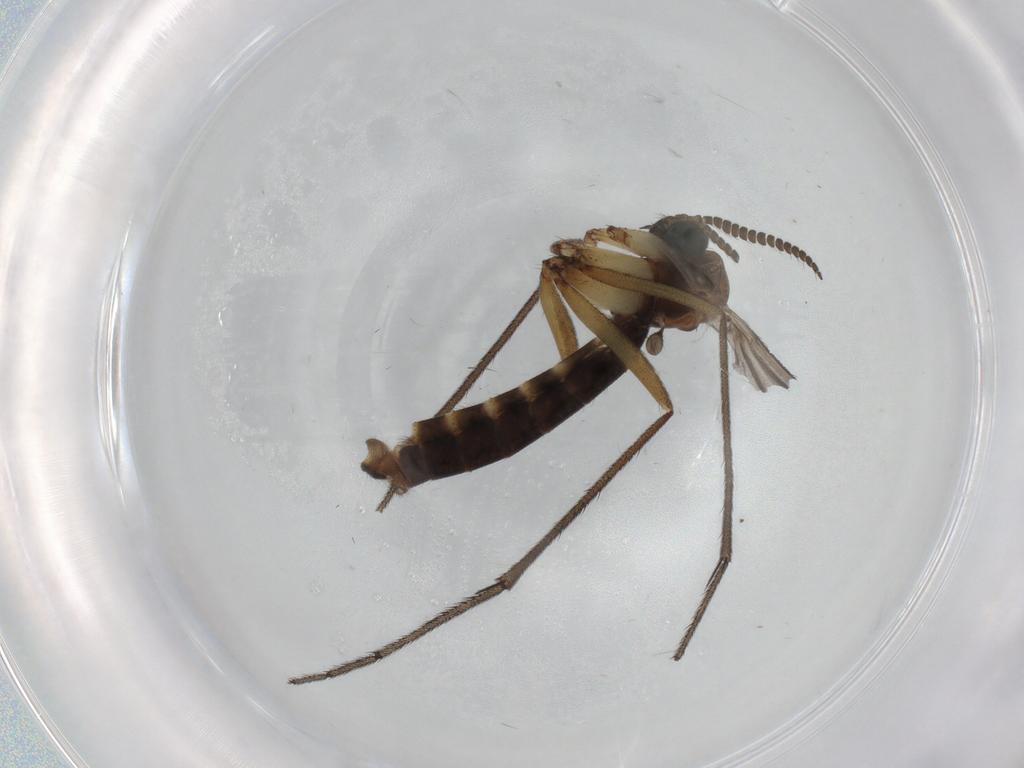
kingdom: Animalia
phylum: Arthropoda
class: Insecta
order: Diptera
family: Cecidomyiidae
